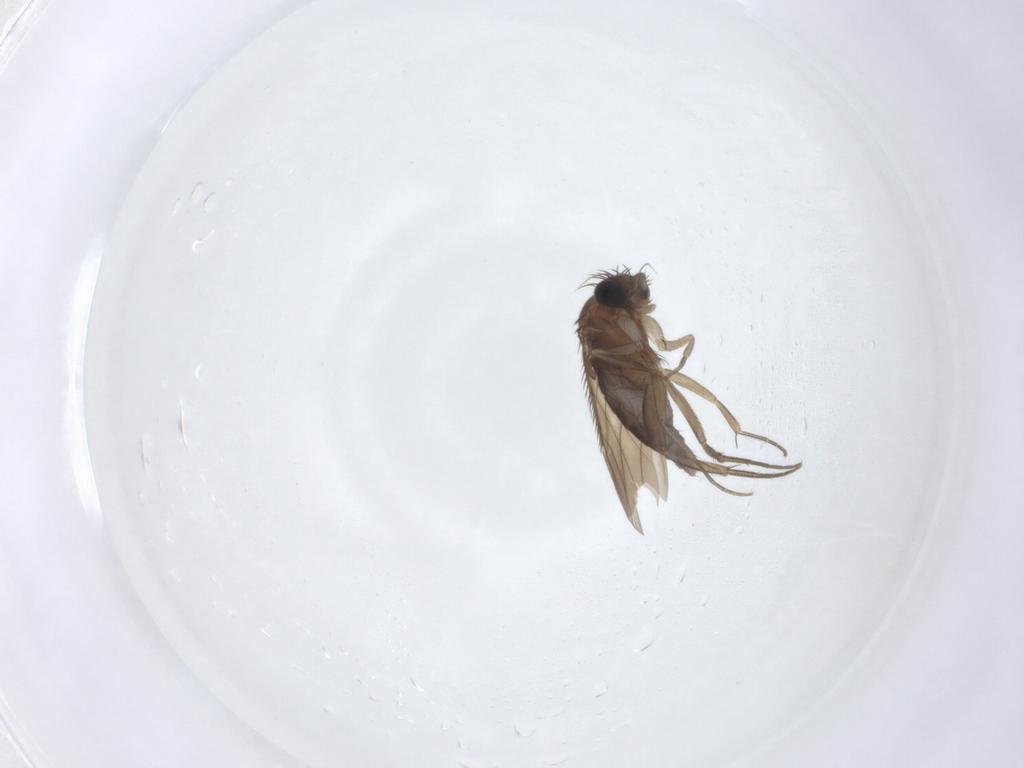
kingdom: Animalia
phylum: Arthropoda
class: Insecta
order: Diptera
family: Phoridae
